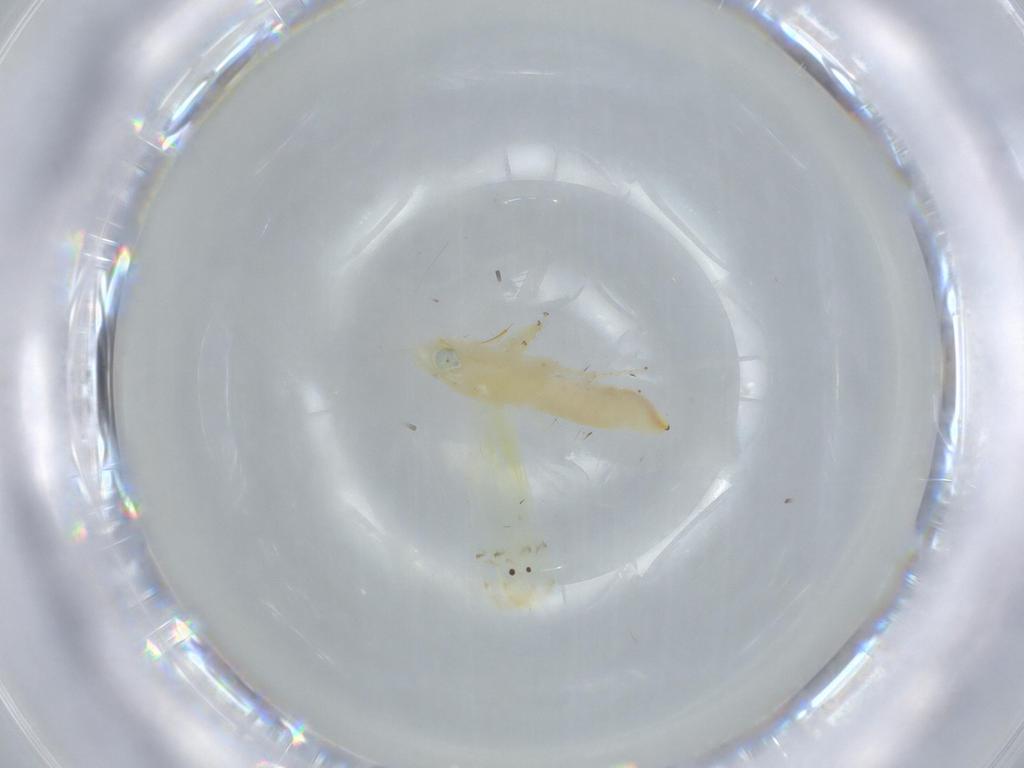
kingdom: Animalia
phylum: Arthropoda
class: Insecta
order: Hemiptera
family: Cicadellidae
